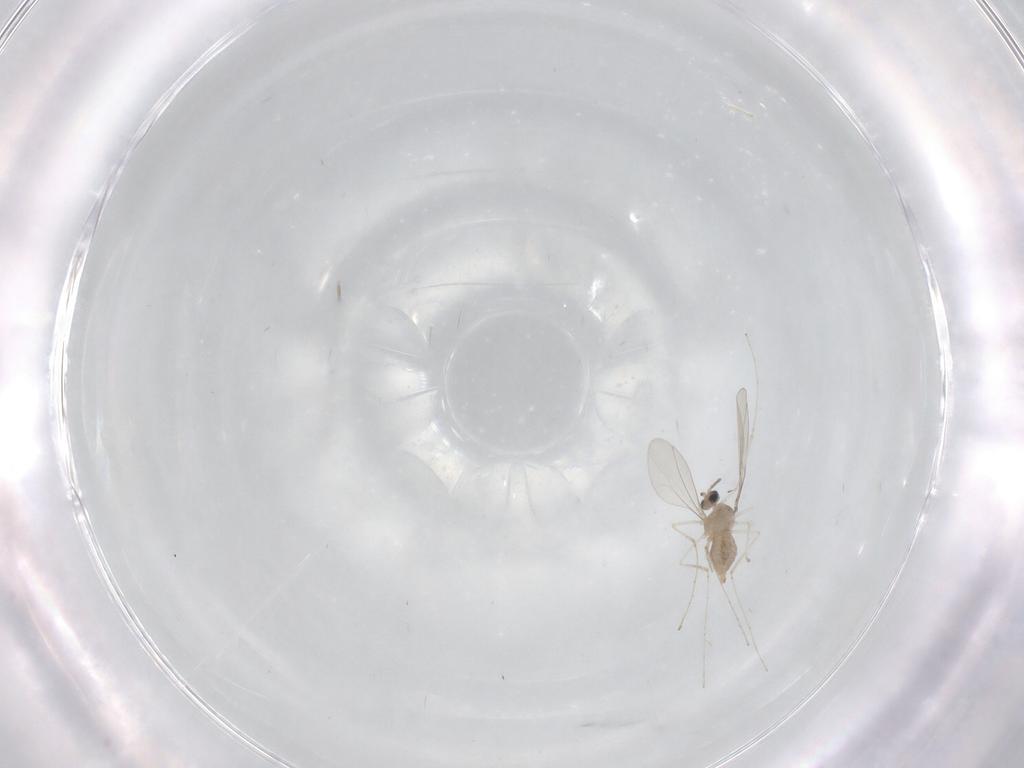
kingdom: Animalia
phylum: Arthropoda
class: Insecta
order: Diptera
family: Cecidomyiidae
